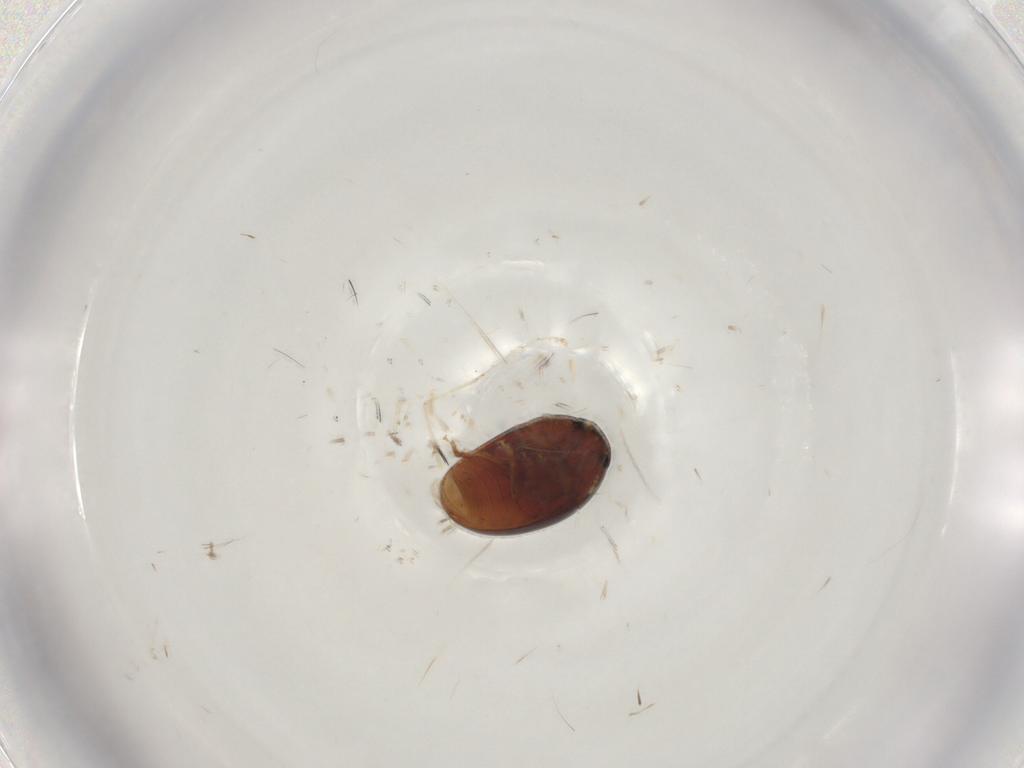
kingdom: Animalia
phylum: Arthropoda
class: Insecta
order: Coleoptera
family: Phalacridae
